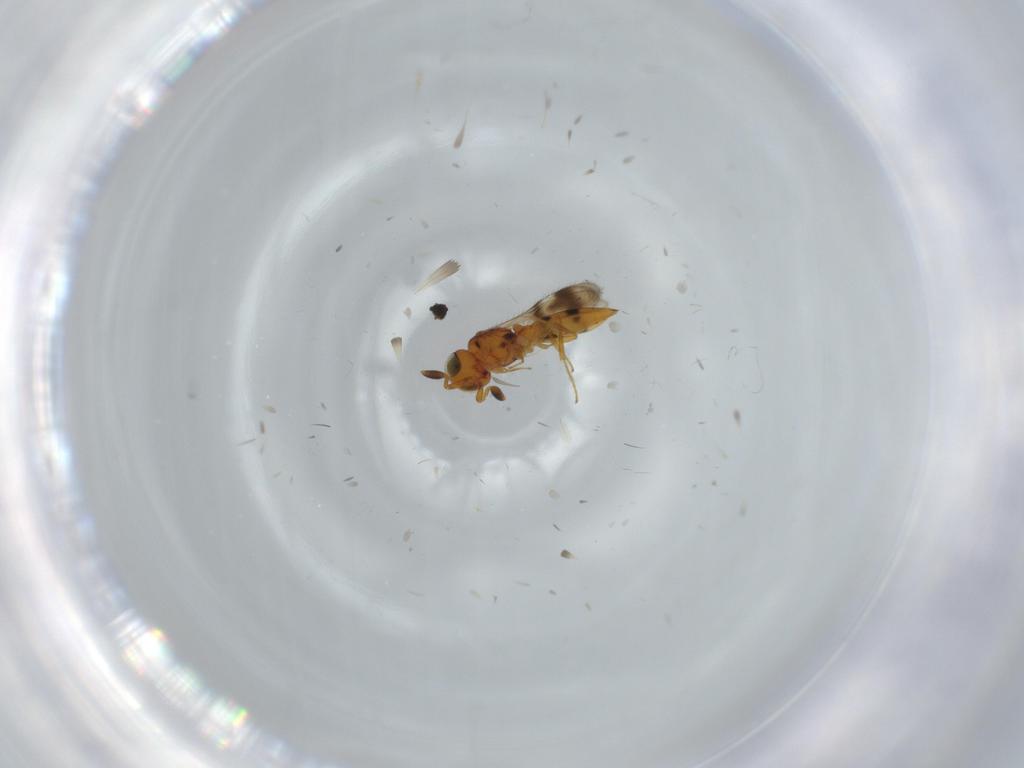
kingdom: Animalia
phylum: Arthropoda
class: Insecta
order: Hymenoptera
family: Scelionidae
